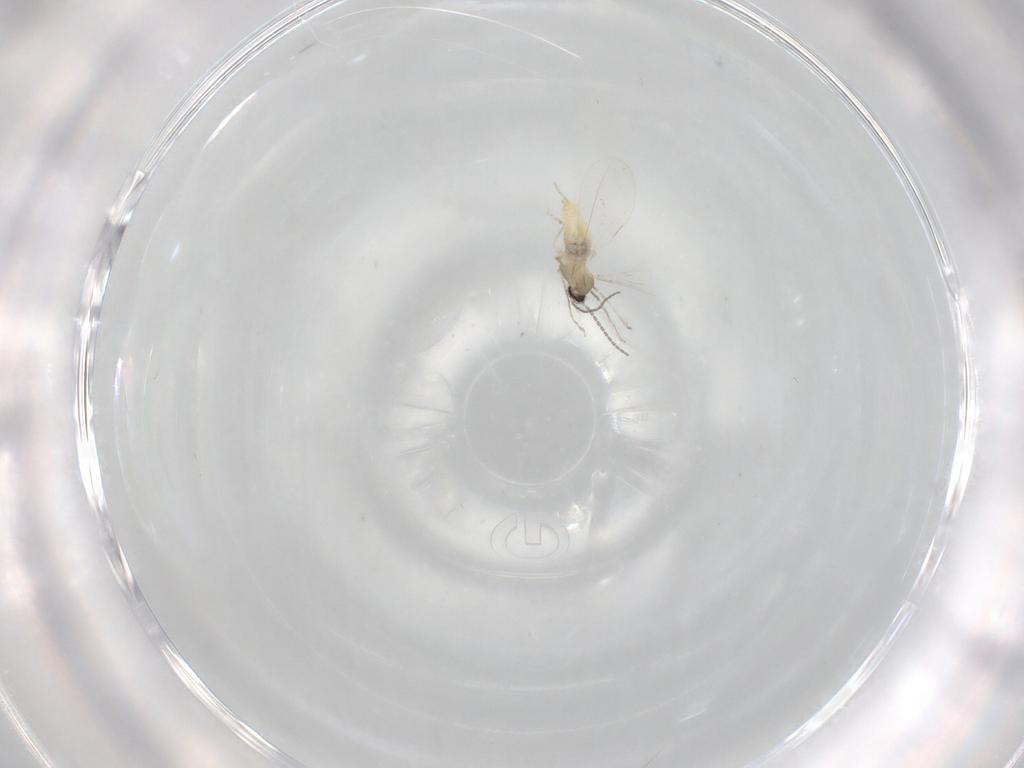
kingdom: Animalia
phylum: Arthropoda
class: Insecta
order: Diptera
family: Cecidomyiidae
